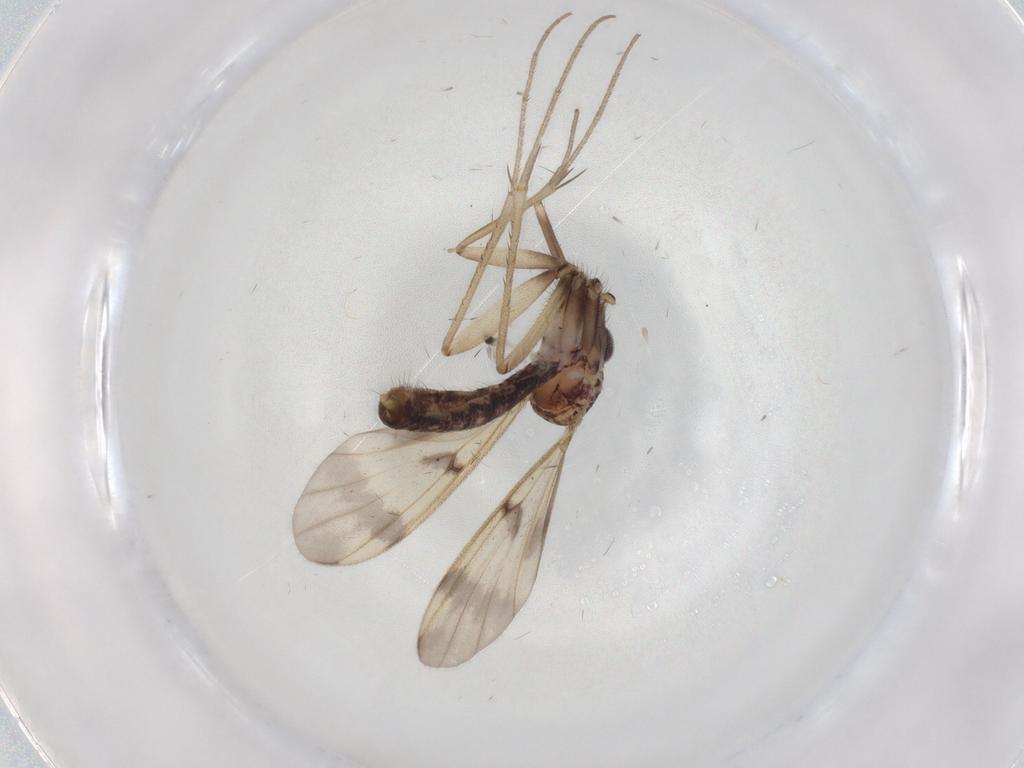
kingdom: Animalia
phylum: Arthropoda
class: Insecta
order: Diptera
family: Mycetophilidae
